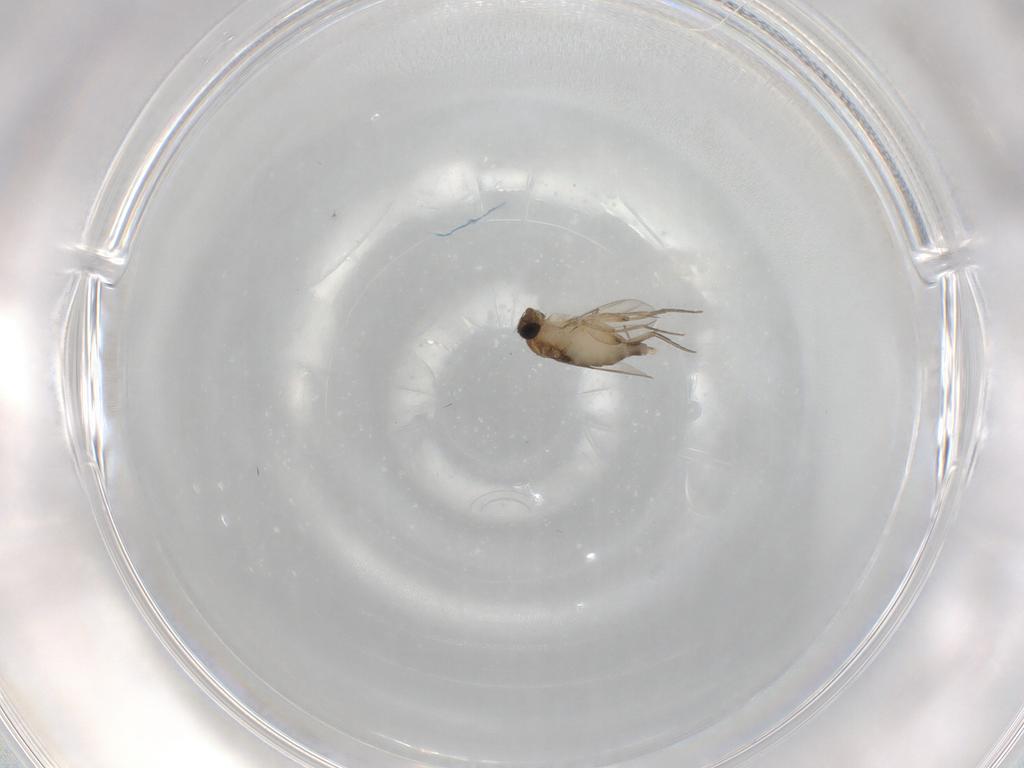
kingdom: Animalia
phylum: Arthropoda
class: Insecta
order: Diptera
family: Phoridae
